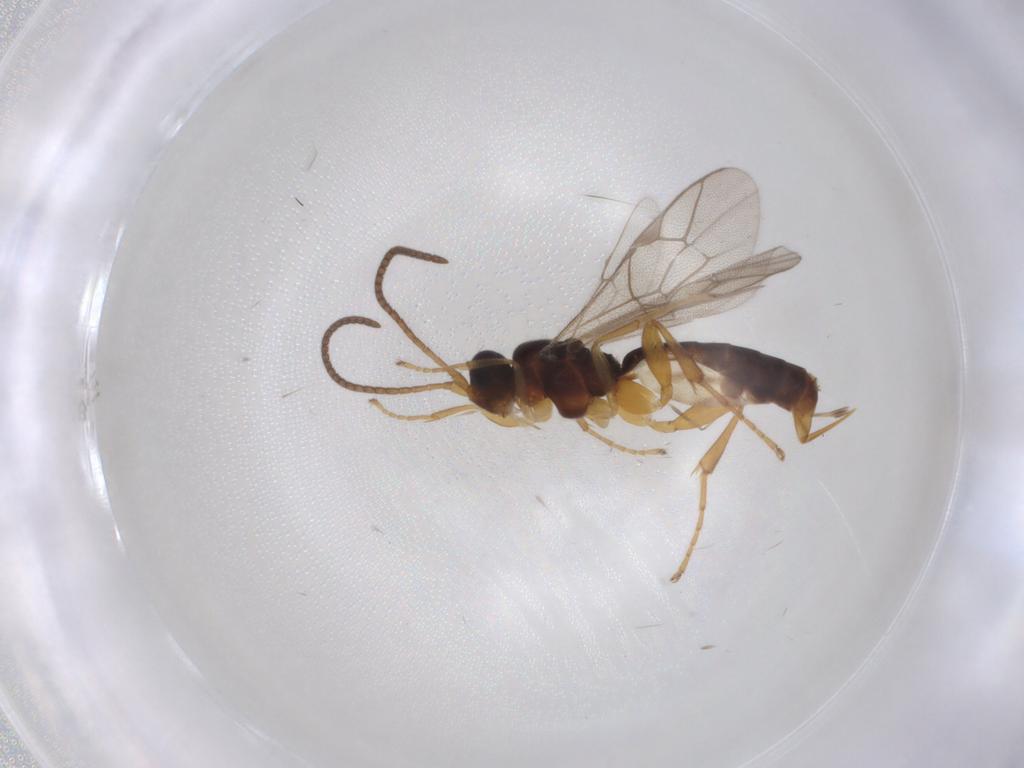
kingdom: Animalia
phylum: Arthropoda
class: Insecta
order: Hymenoptera
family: Ichneumonidae
